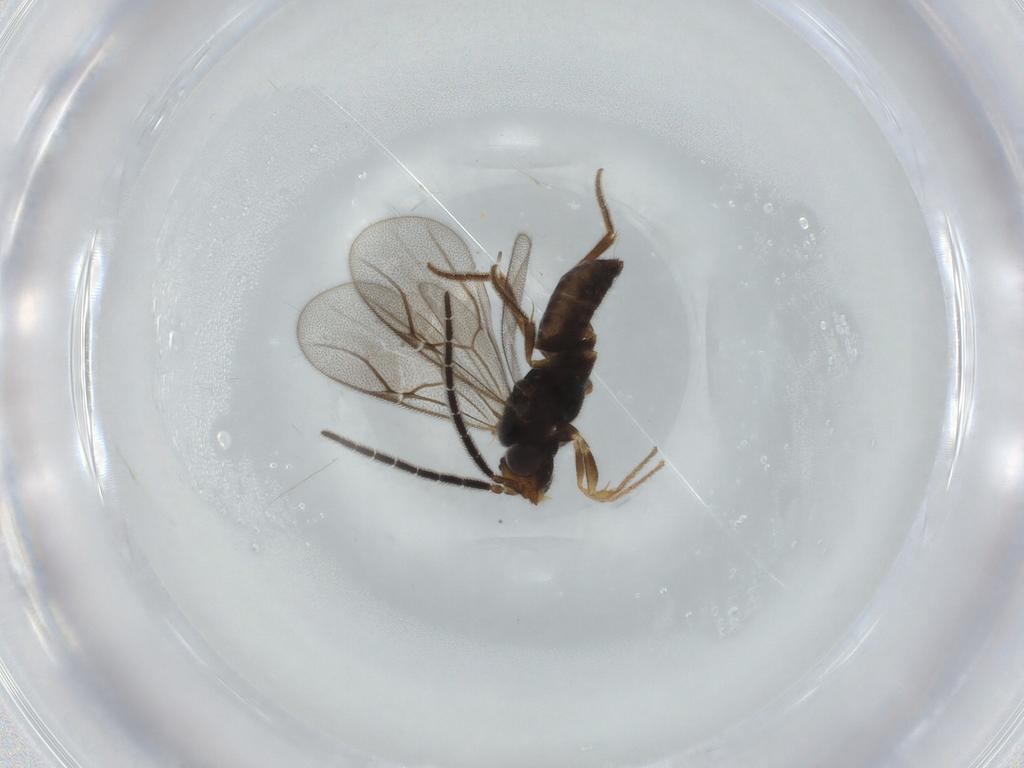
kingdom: Animalia
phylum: Arthropoda
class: Insecta
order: Hymenoptera
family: Dryinidae
